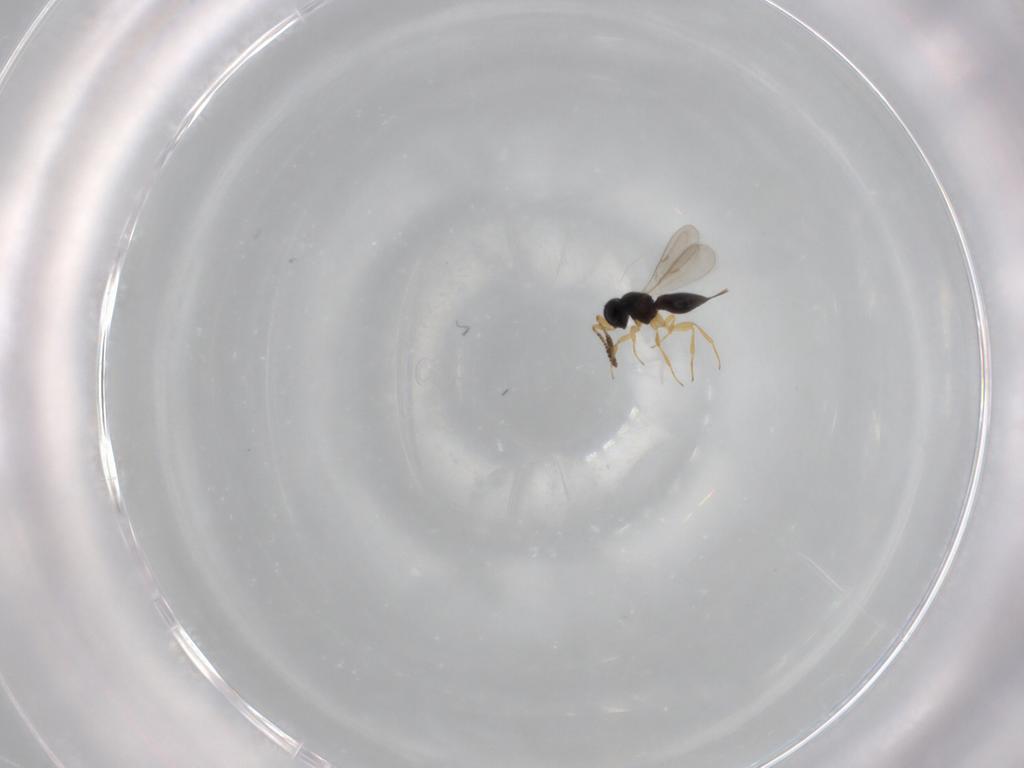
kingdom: Animalia
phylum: Arthropoda
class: Insecta
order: Hymenoptera
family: Scelionidae
